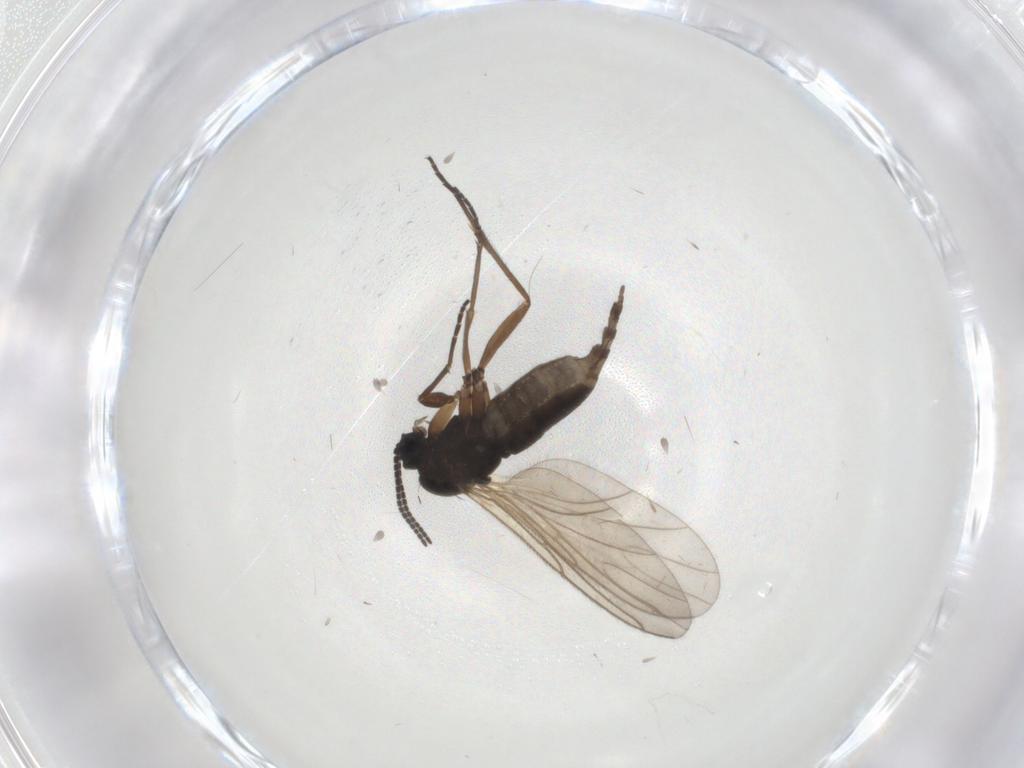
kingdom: Animalia
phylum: Arthropoda
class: Insecta
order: Diptera
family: Sciaridae
